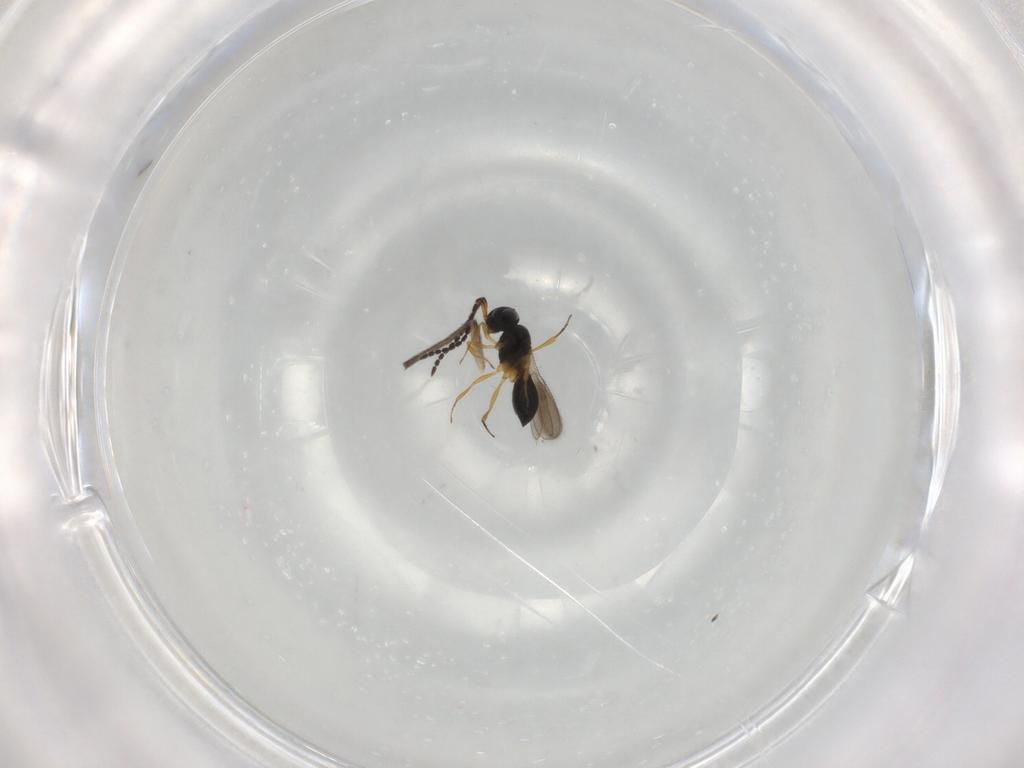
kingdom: Animalia
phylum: Arthropoda
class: Insecta
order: Hymenoptera
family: Scelionidae
